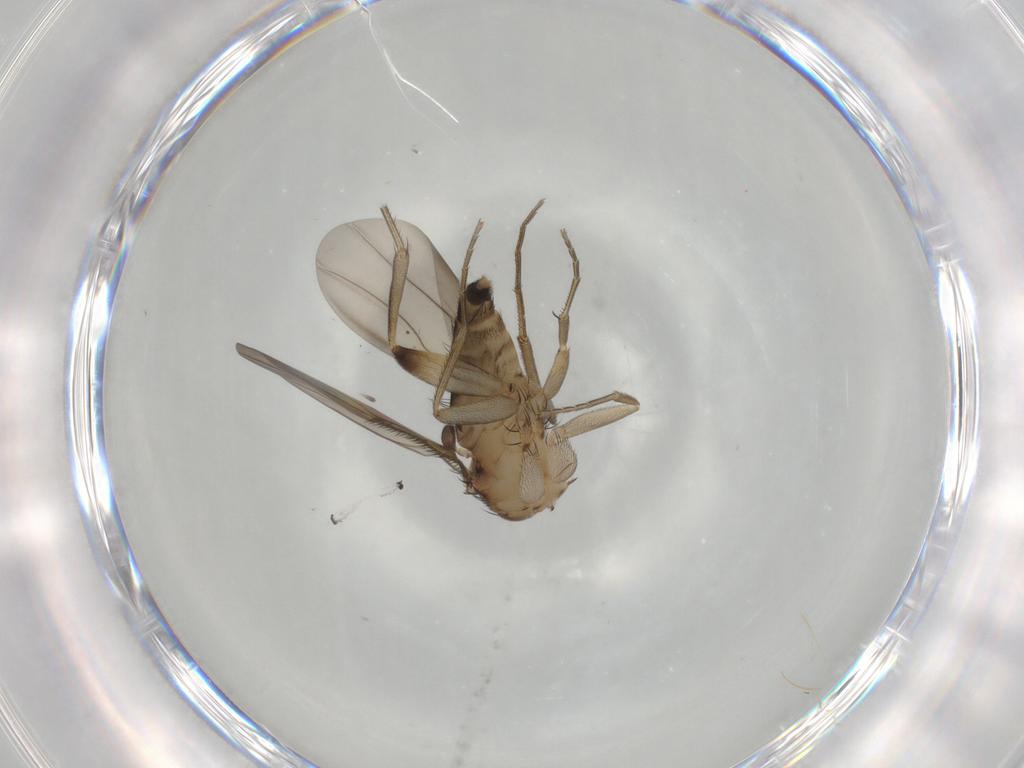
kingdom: Animalia
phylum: Arthropoda
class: Insecta
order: Diptera
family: Phoridae
